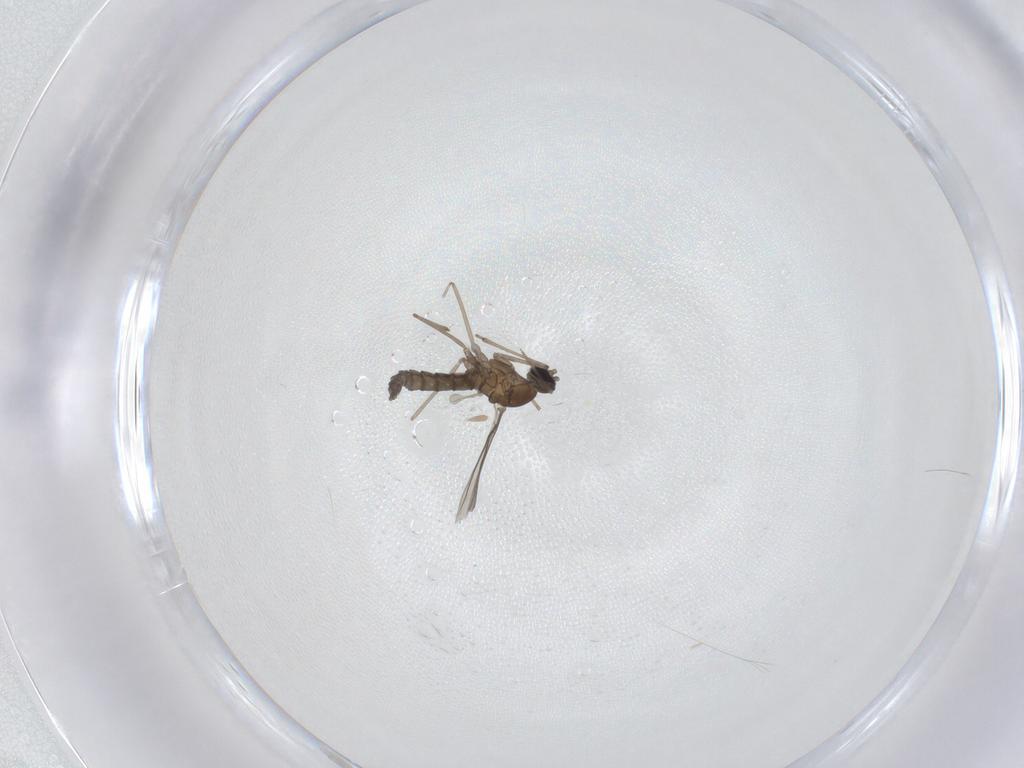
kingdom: Animalia
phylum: Arthropoda
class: Insecta
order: Diptera
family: Cecidomyiidae
